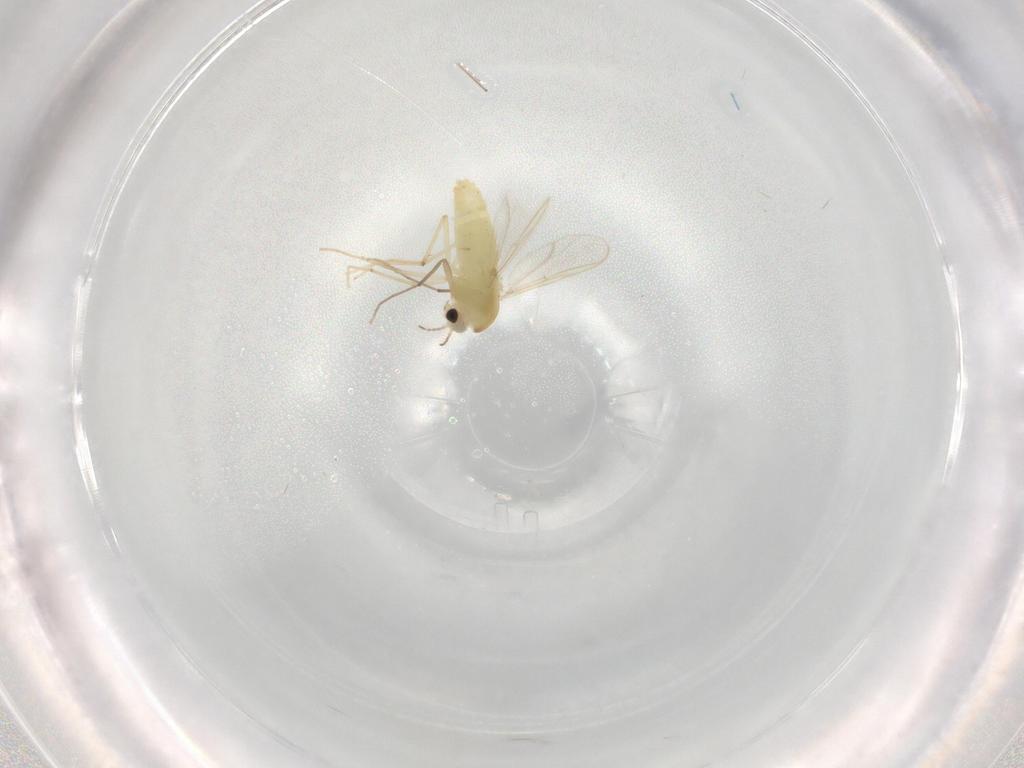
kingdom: Animalia
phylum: Arthropoda
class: Insecta
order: Diptera
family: Chironomidae
